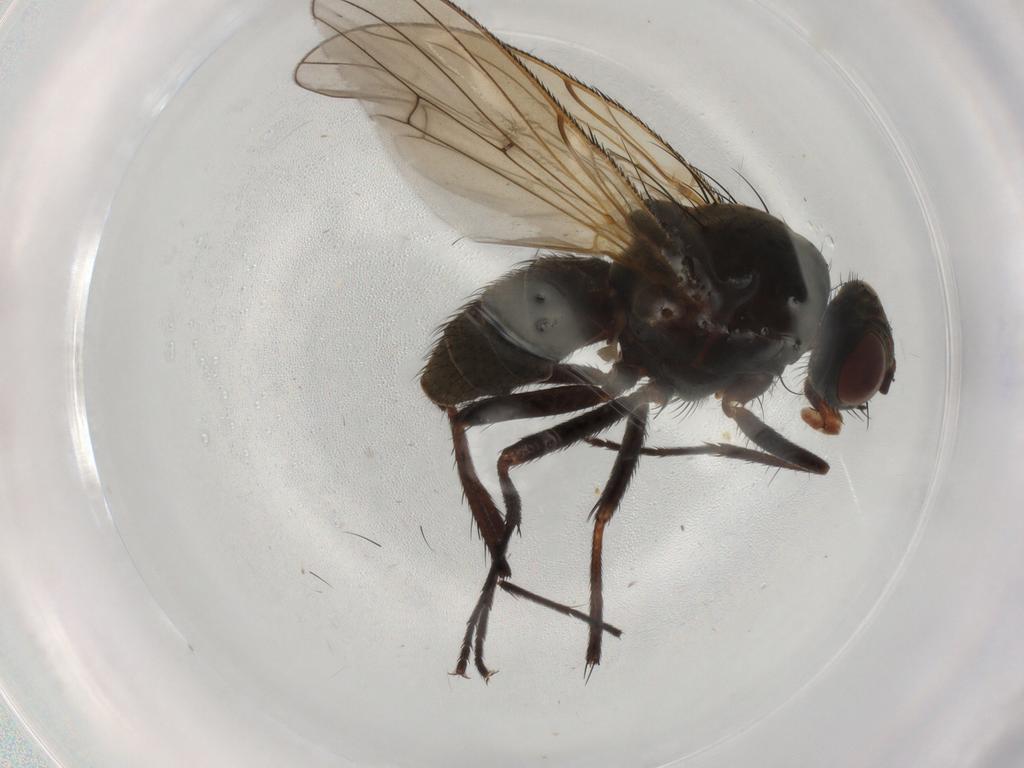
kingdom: Animalia
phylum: Arthropoda
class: Insecta
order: Diptera
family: Anthomyiidae
